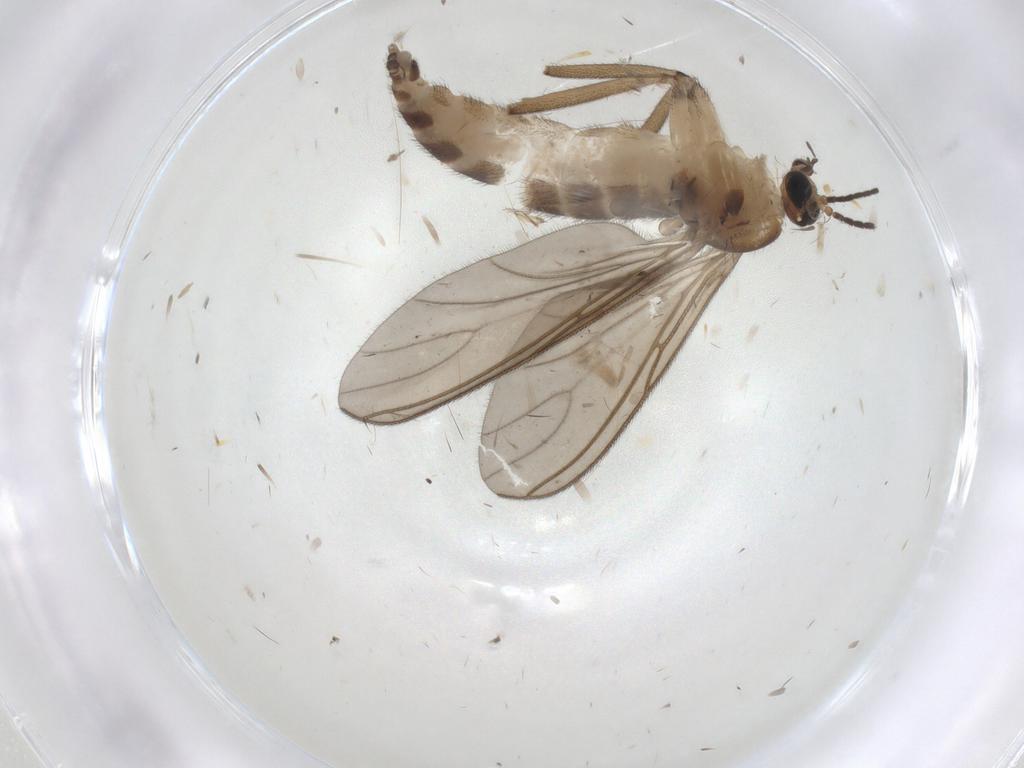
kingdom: Animalia
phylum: Arthropoda
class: Insecta
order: Diptera
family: Sciaridae
